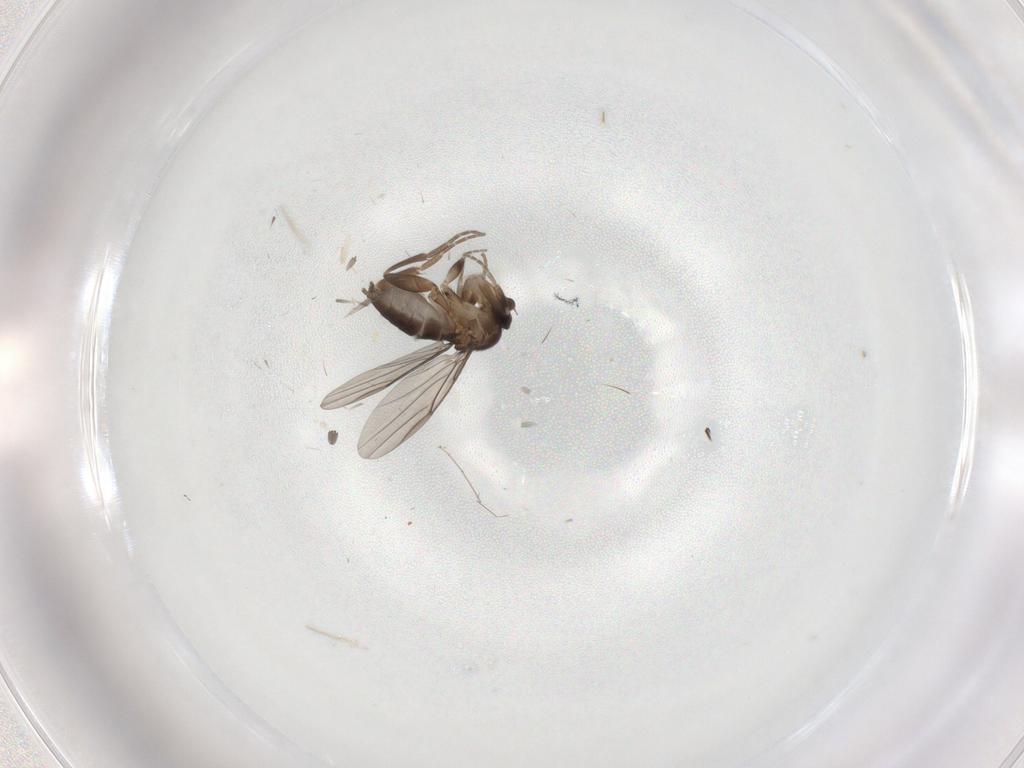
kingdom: Animalia
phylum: Arthropoda
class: Insecta
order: Diptera
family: Phoridae
